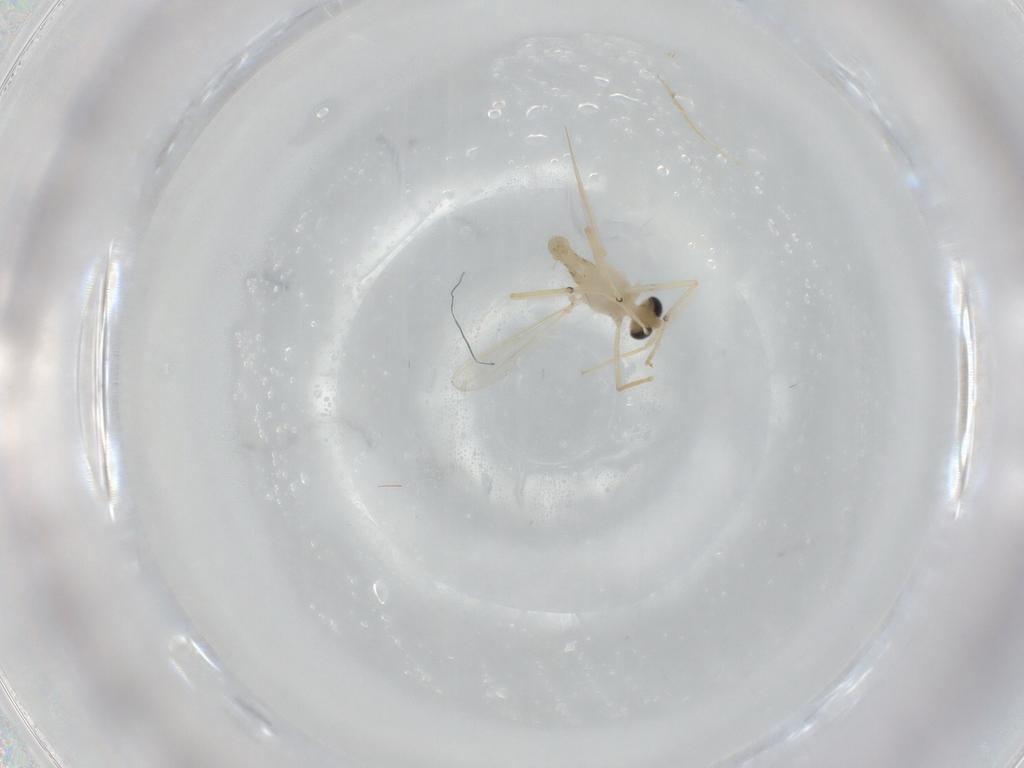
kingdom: Animalia
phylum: Arthropoda
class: Insecta
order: Diptera
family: Chironomidae
